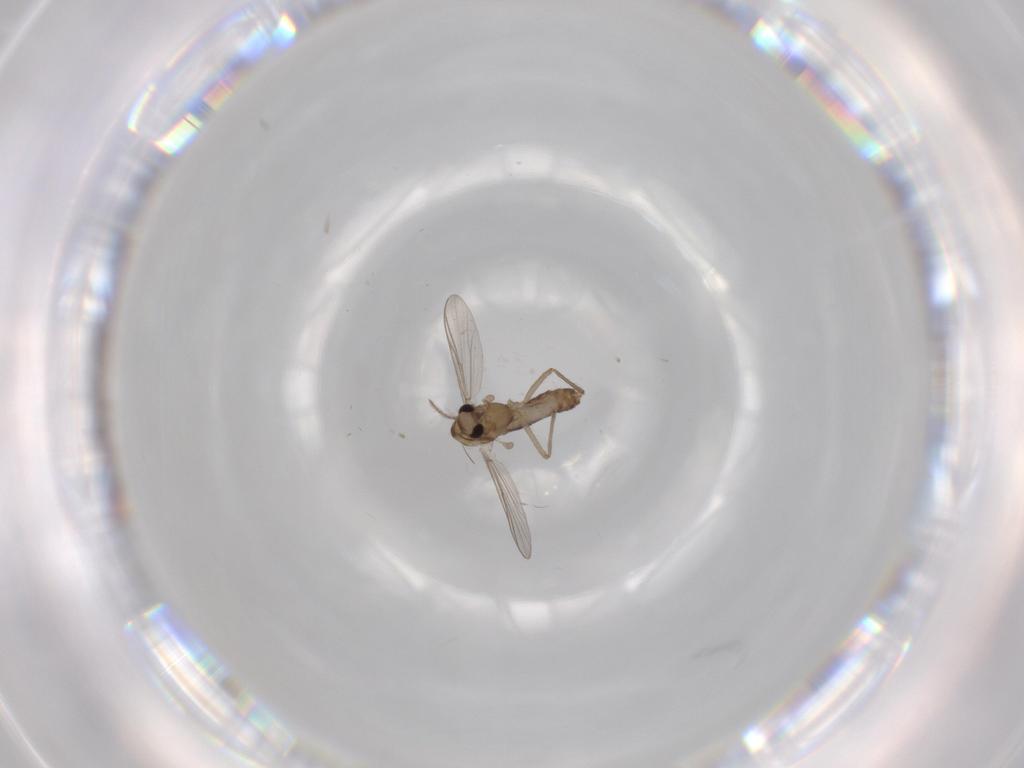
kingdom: Animalia
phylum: Arthropoda
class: Insecta
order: Diptera
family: Chironomidae
